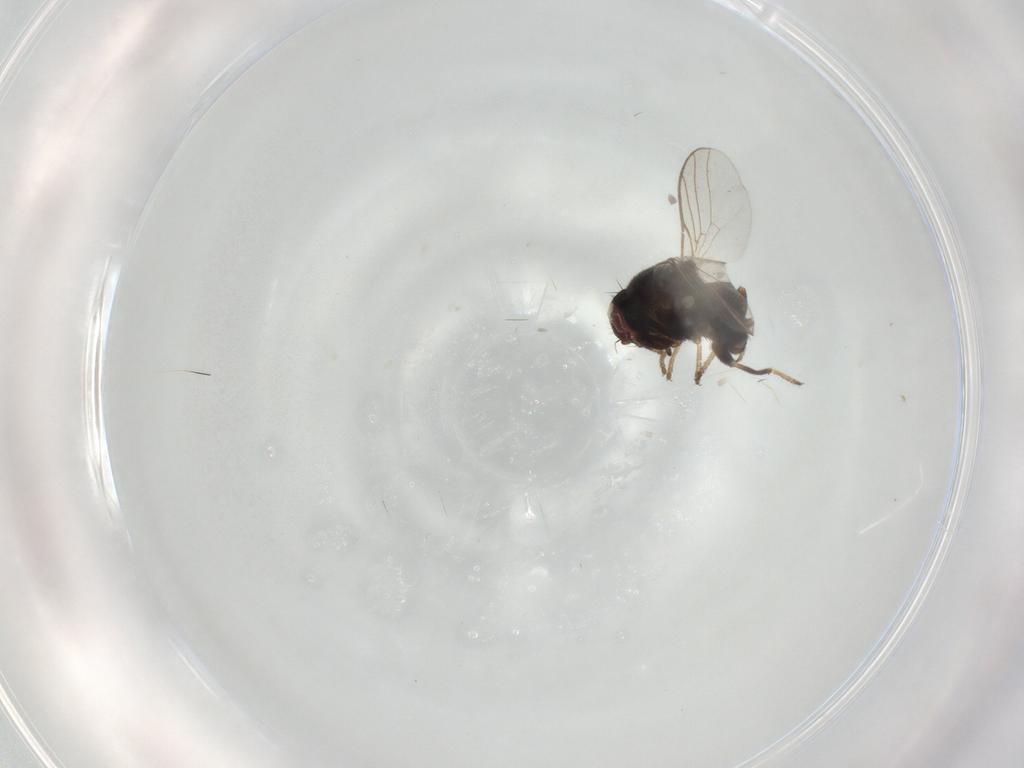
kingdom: Animalia
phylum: Arthropoda
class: Insecta
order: Diptera
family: Chloropidae
